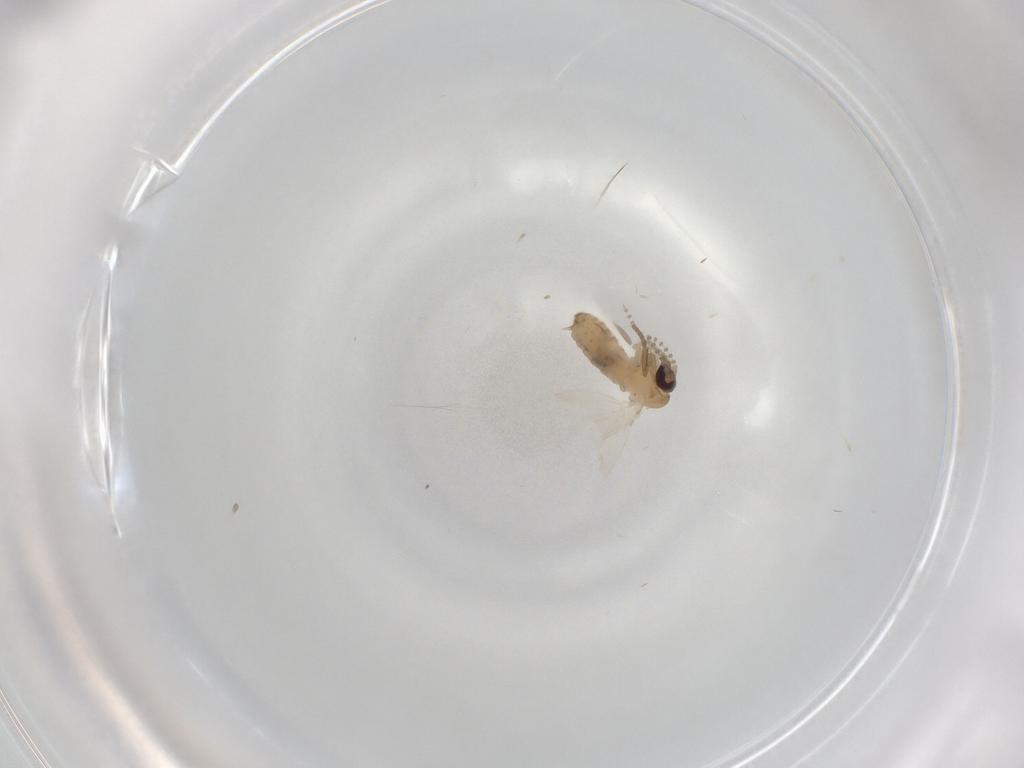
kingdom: Animalia
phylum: Arthropoda
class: Insecta
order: Diptera
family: Psychodidae
